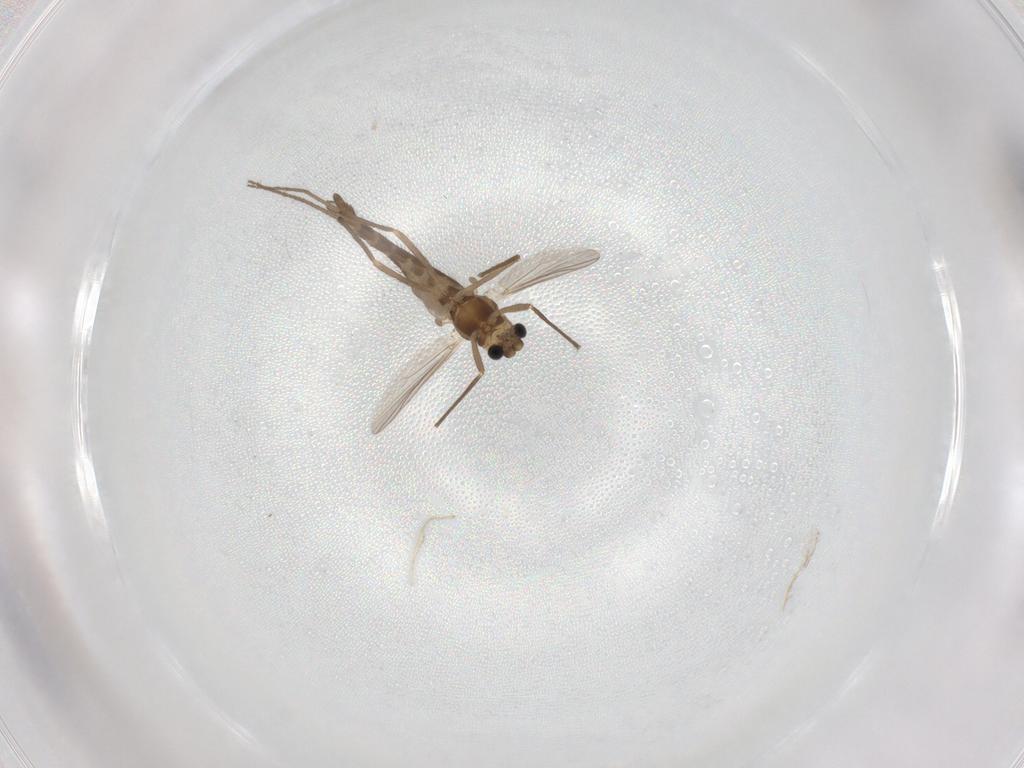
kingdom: Animalia
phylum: Arthropoda
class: Insecta
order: Diptera
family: Chironomidae
